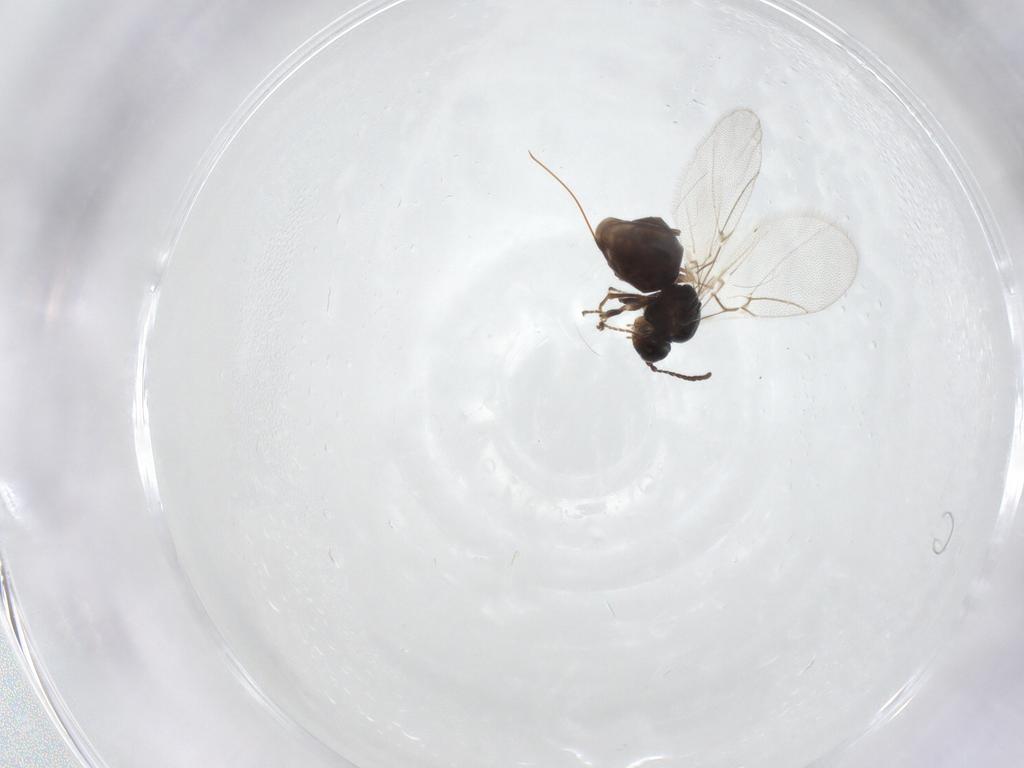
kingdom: Animalia
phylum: Arthropoda
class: Insecta
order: Hymenoptera
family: Cynipidae
